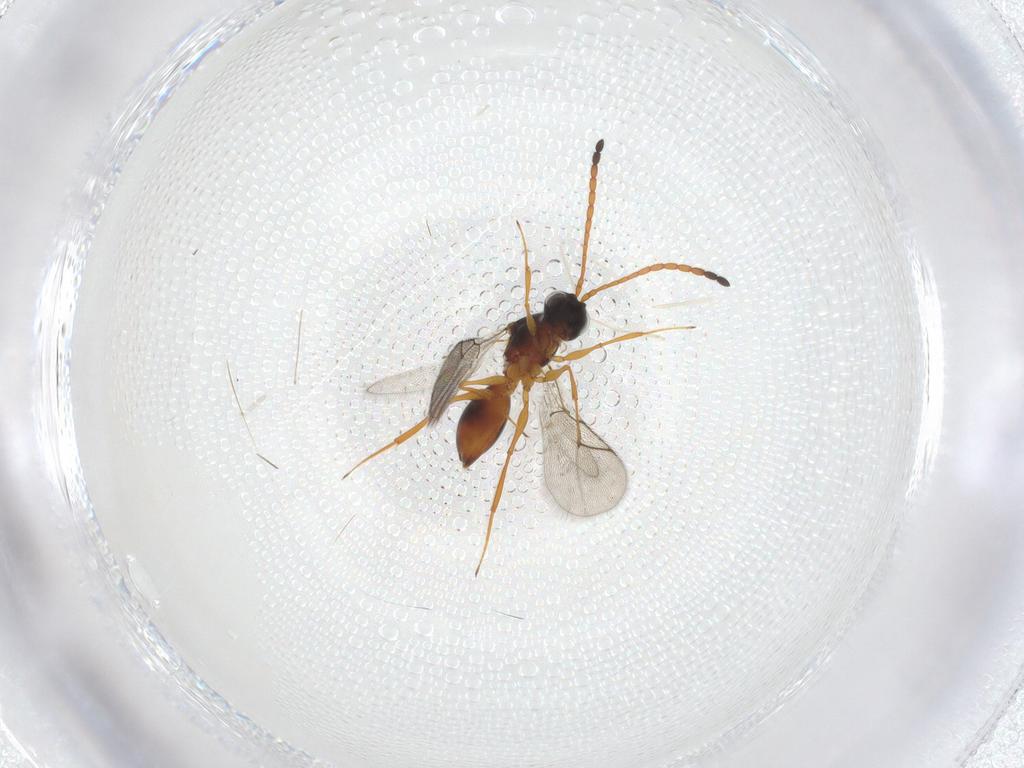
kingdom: Animalia
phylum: Arthropoda
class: Insecta
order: Hymenoptera
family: Figitidae
